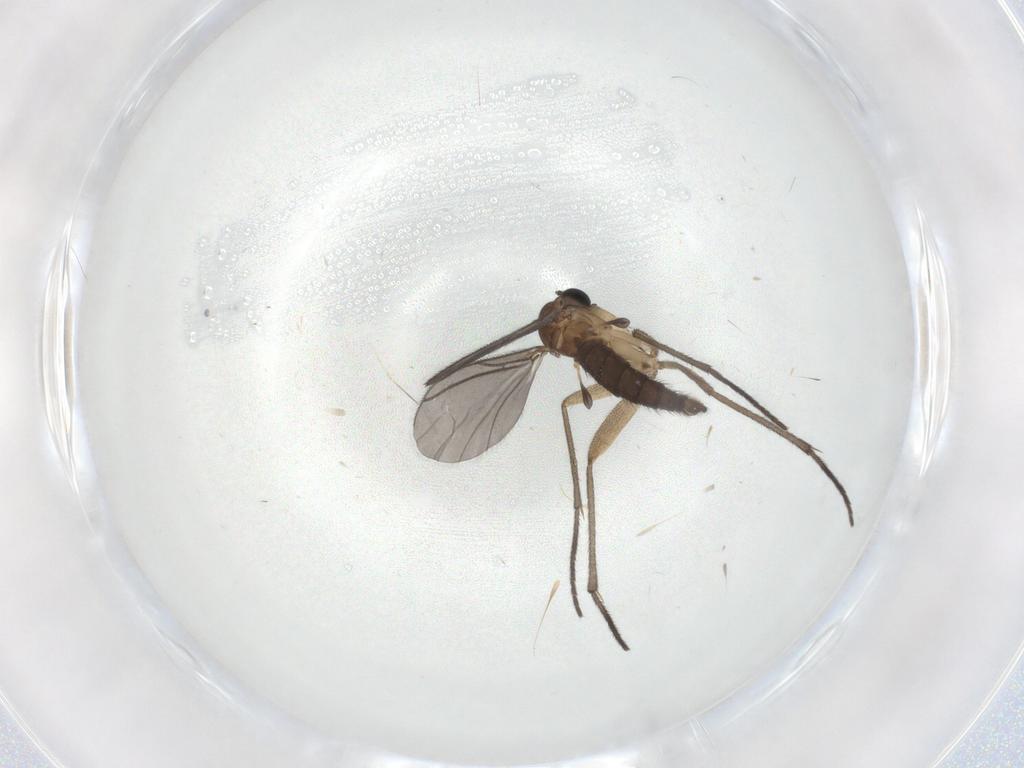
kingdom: Animalia
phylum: Arthropoda
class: Insecta
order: Diptera
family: Sciaridae
